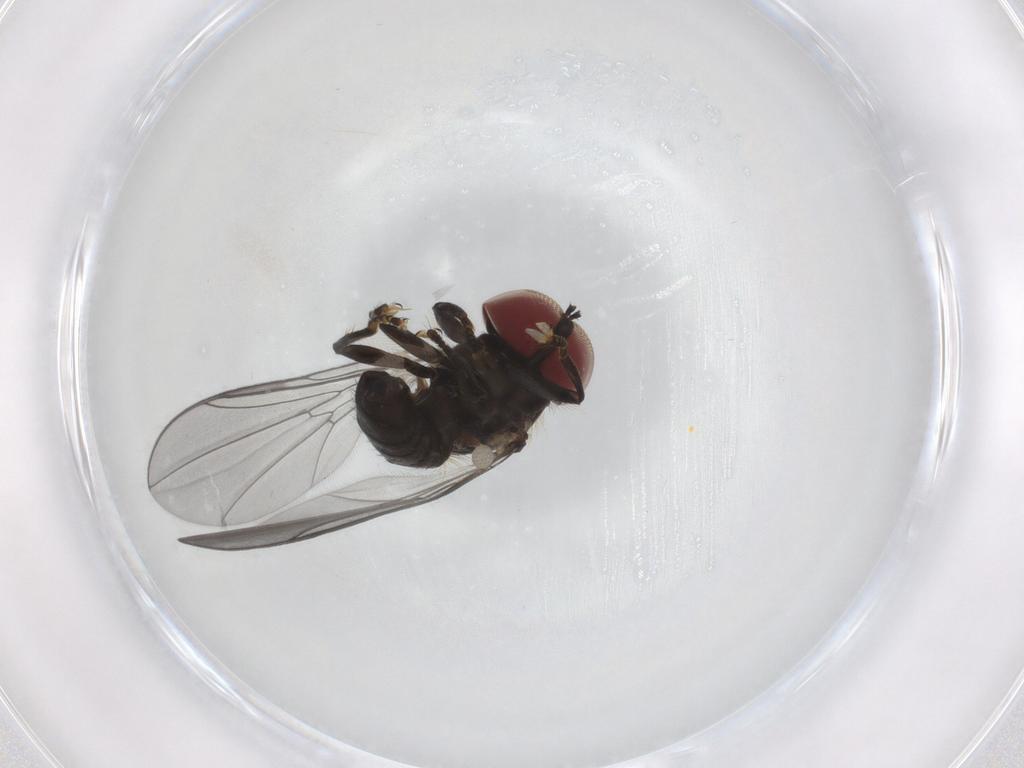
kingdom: Animalia
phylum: Arthropoda
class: Insecta
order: Diptera
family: Pipunculidae
